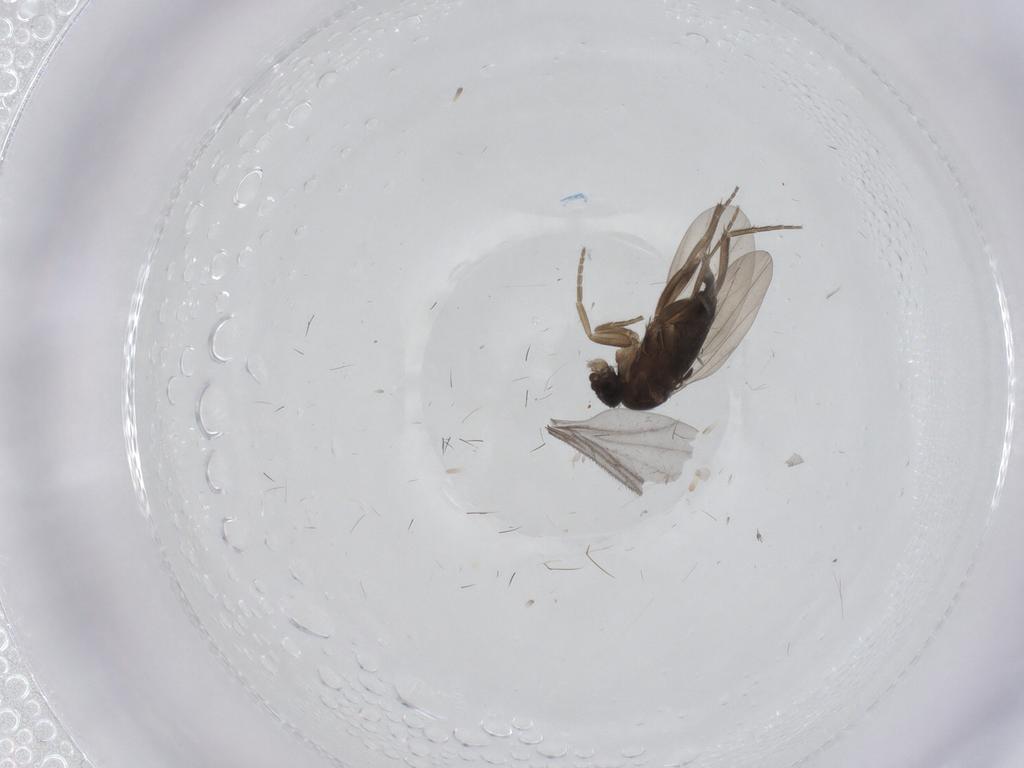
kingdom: Animalia
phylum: Arthropoda
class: Insecta
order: Diptera
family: Phoridae
